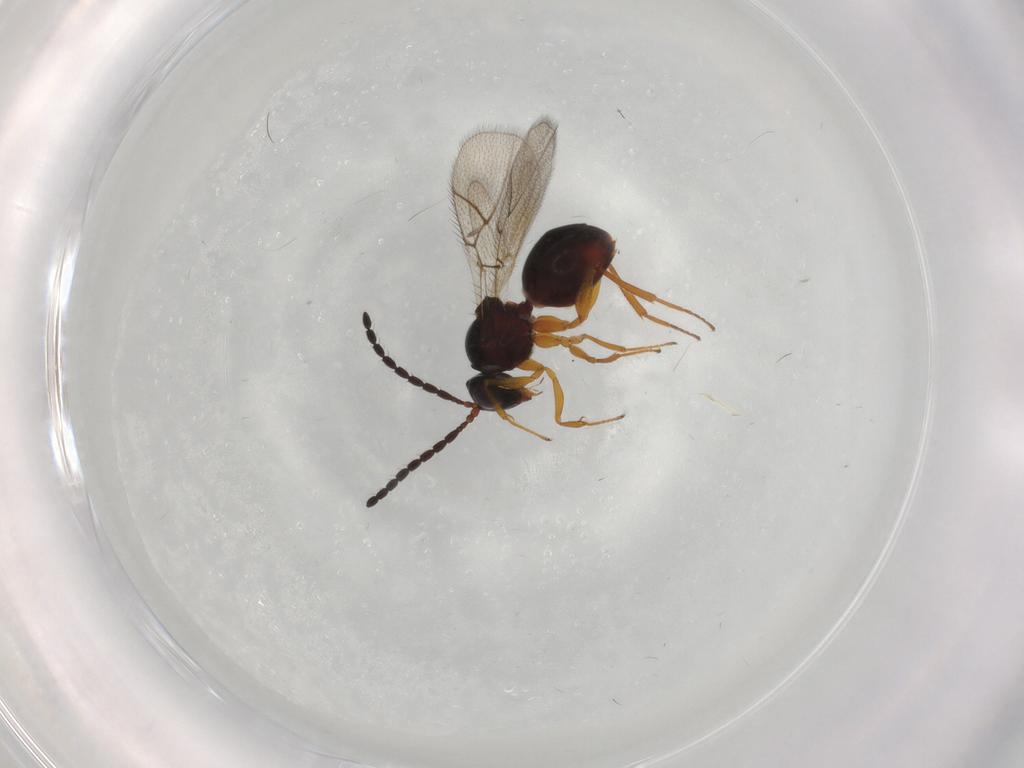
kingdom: Animalia
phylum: Arthropoda
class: Insecta
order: Hymenoptera
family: Figitidae
